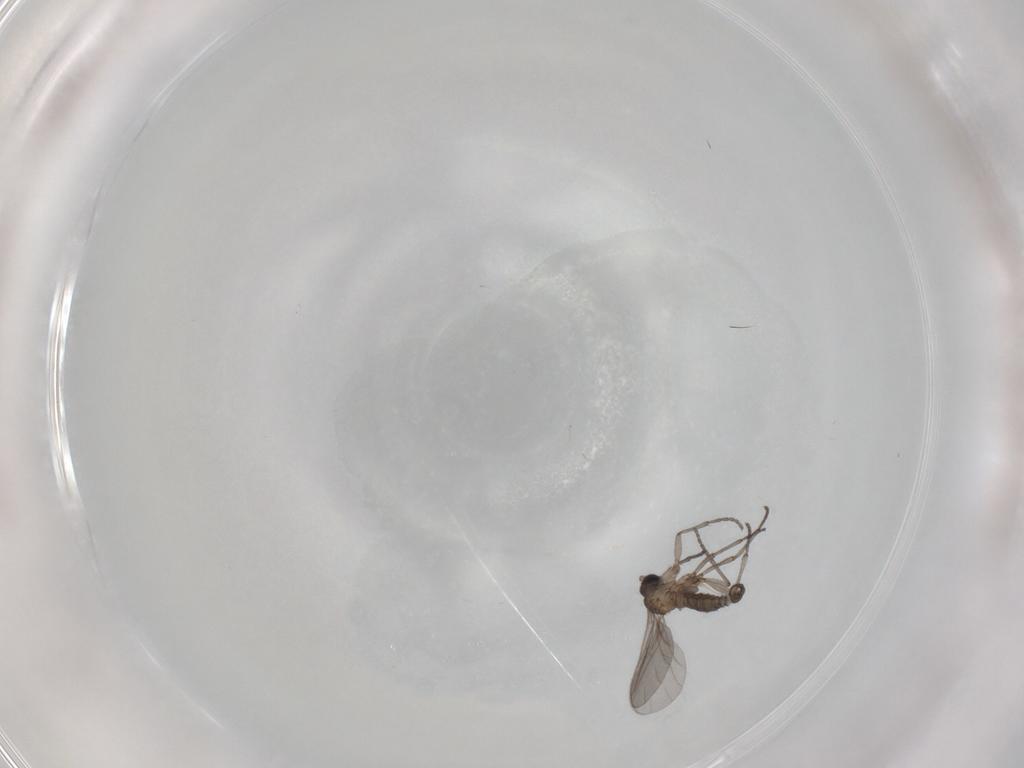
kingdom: Animalia
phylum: Arthropoda
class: Insecta
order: Diptera
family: Sciaridae
